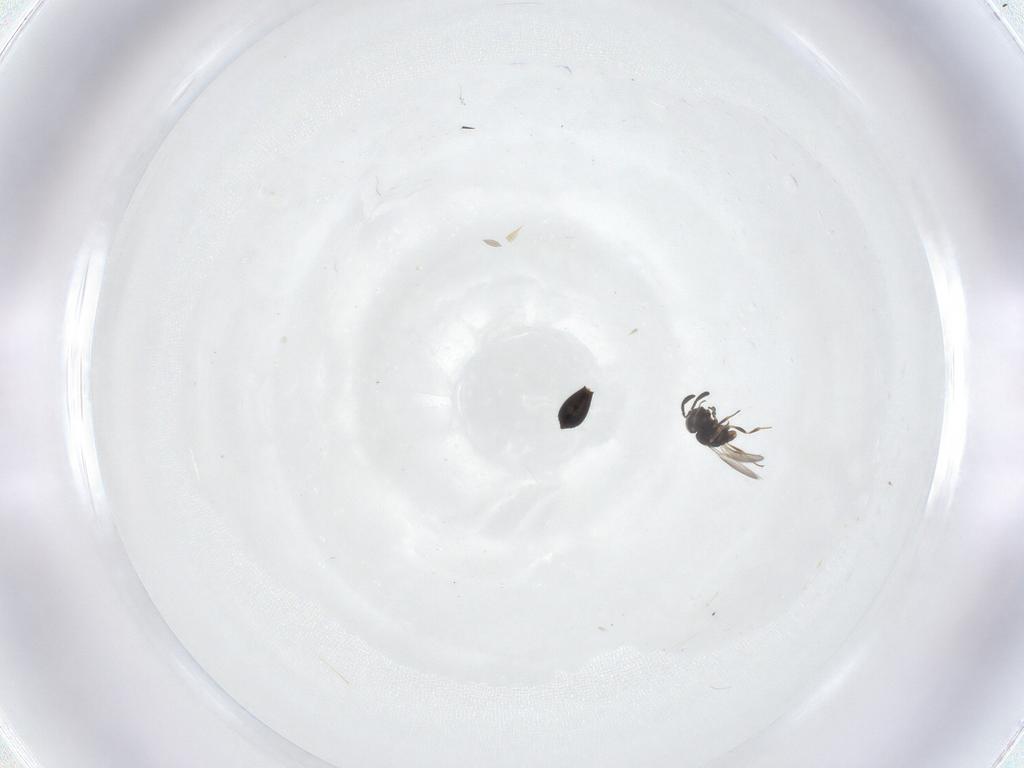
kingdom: Animalia
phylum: Arthropoda
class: Insecta
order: Hymenoptera
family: Scelionidae
